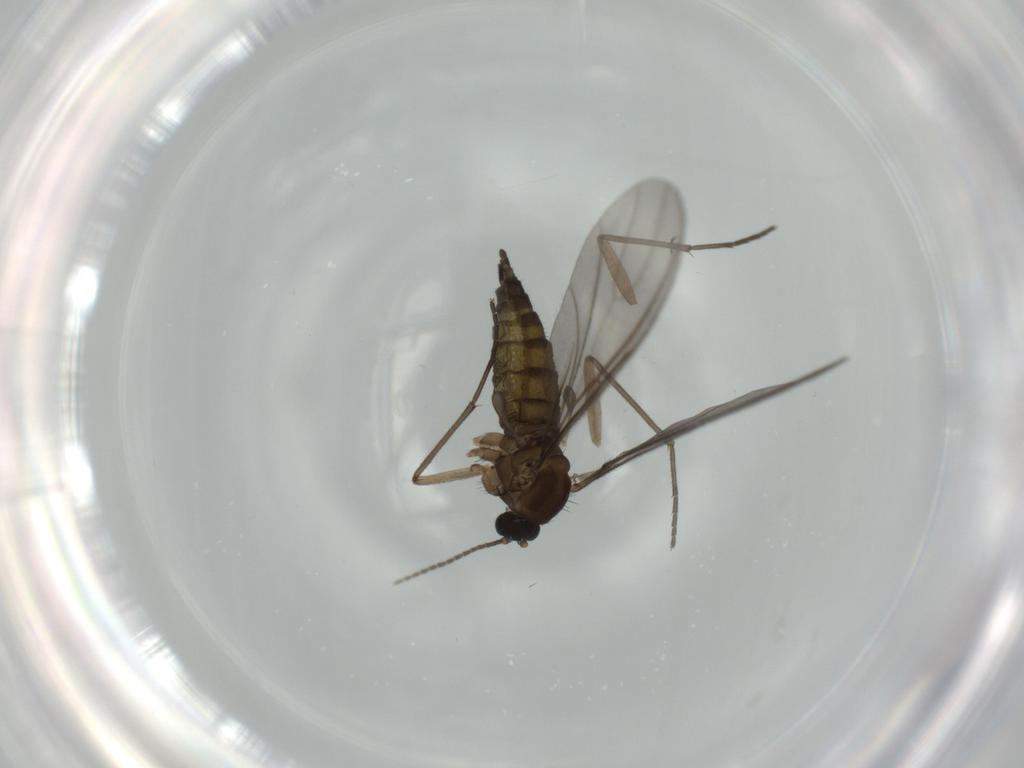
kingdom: Animalia
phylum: Arthropoda
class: Insecta
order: Diptera
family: Sciaridae
